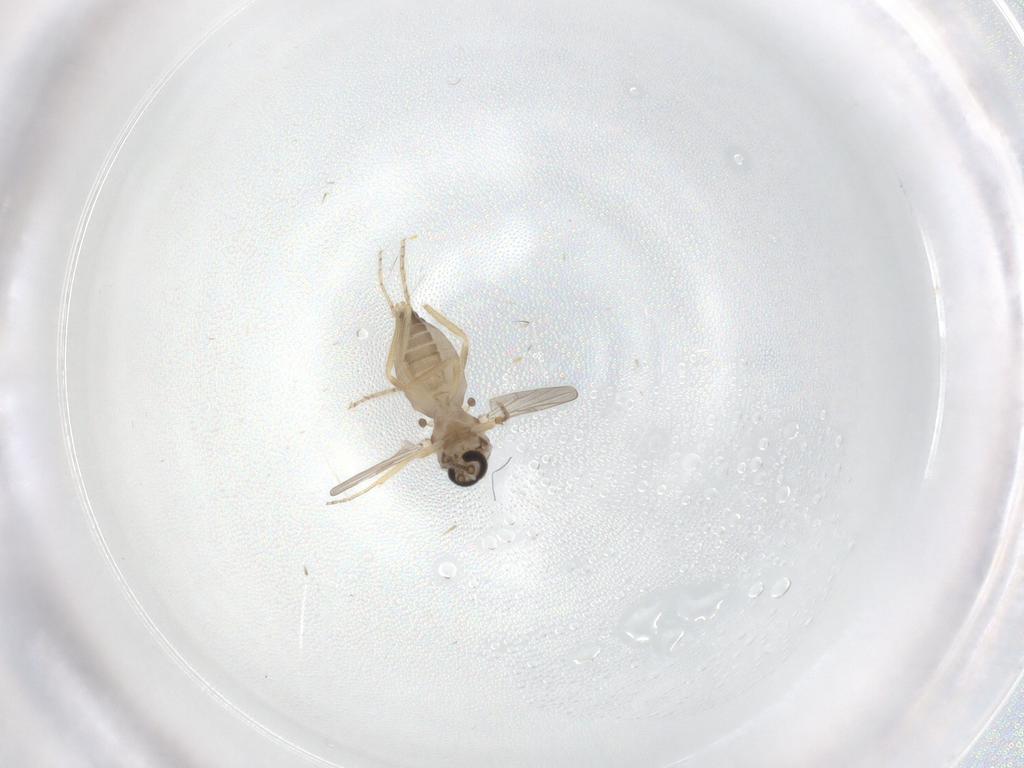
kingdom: Animalia
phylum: Arthropoda
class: Insecta
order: Diptera
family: Ceratopogonidae
